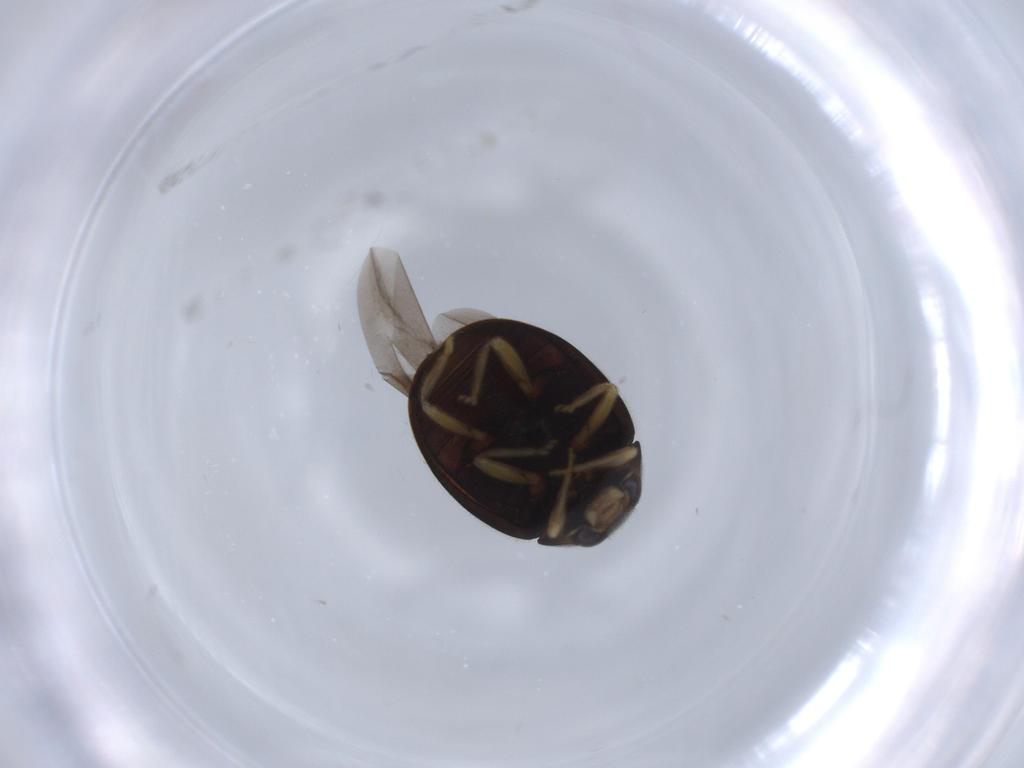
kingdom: Animalia
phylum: Arthropoda
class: Insecta
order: Coleoptera
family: Coccinellidae
